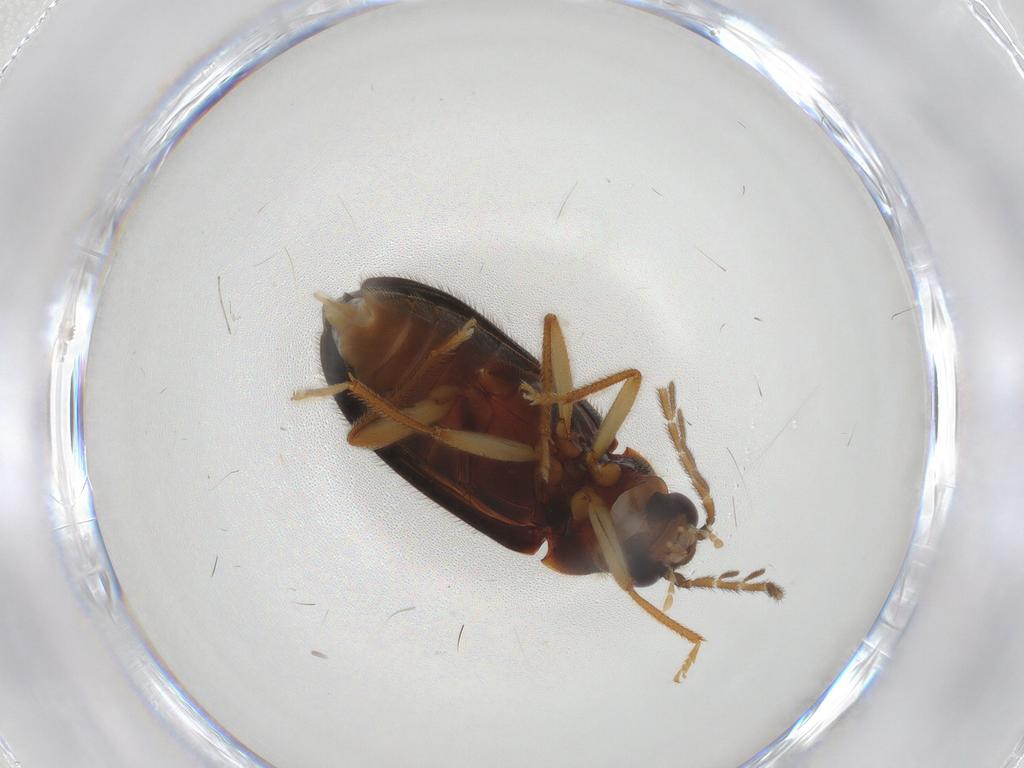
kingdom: Animalia
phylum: Arthropoda
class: Insecta
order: Coleoptera
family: Ptilodactylidae
